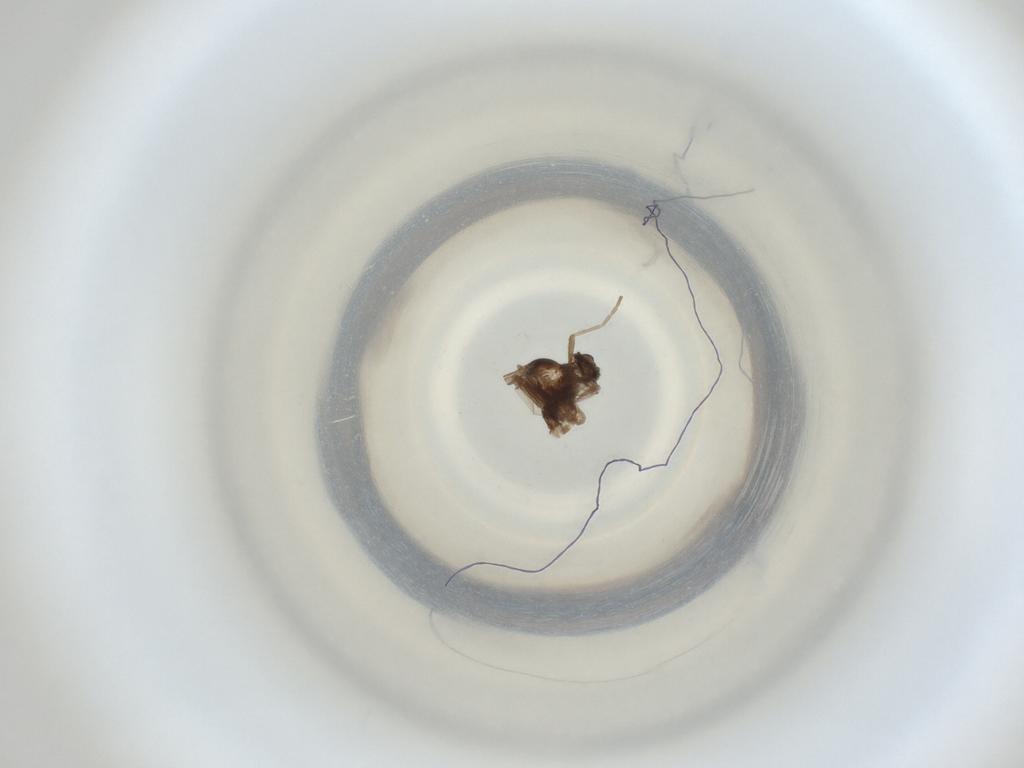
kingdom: Animalia
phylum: Arthropoda
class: Insecta
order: Diptera
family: Cecidomyiidae
